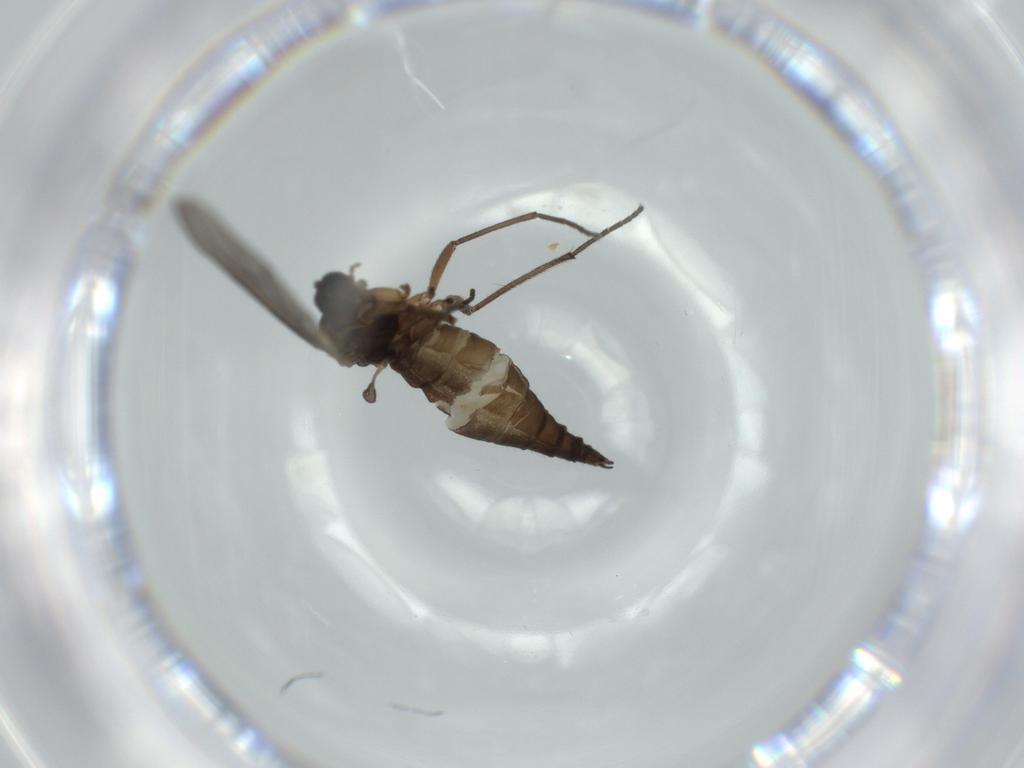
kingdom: Animalia
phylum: Arthropoda
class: Insecta
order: Diptera
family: Sciaridae
